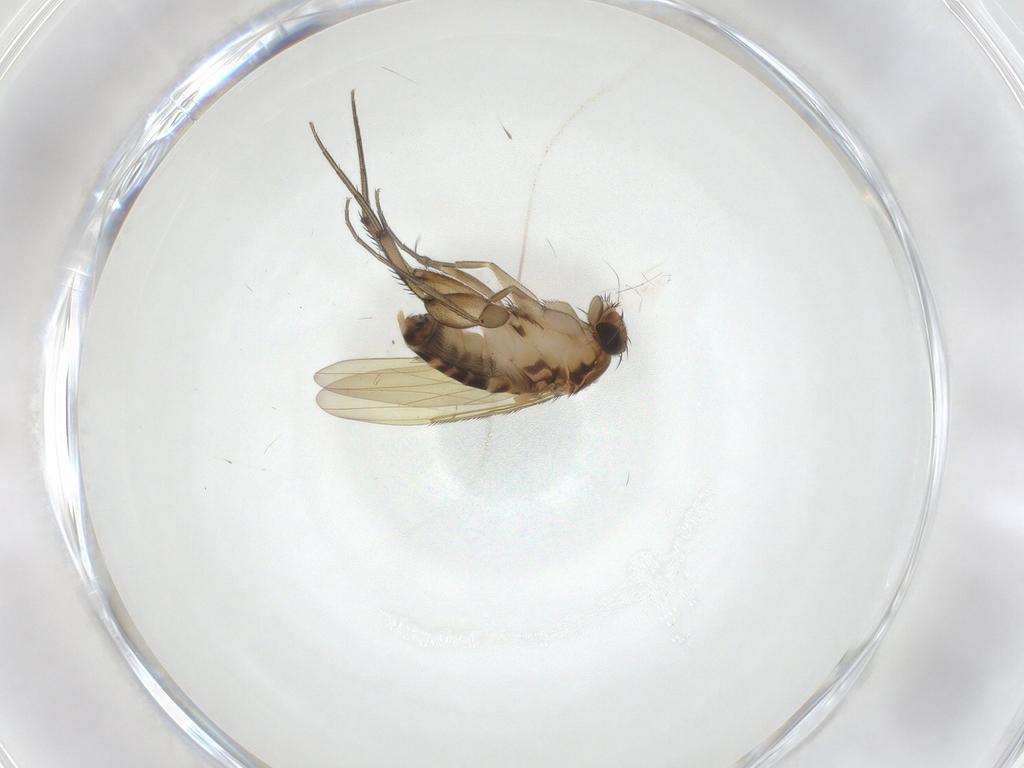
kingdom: Animalia
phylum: Arthropoda
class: Insecta
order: Diptera
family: Phoridae
